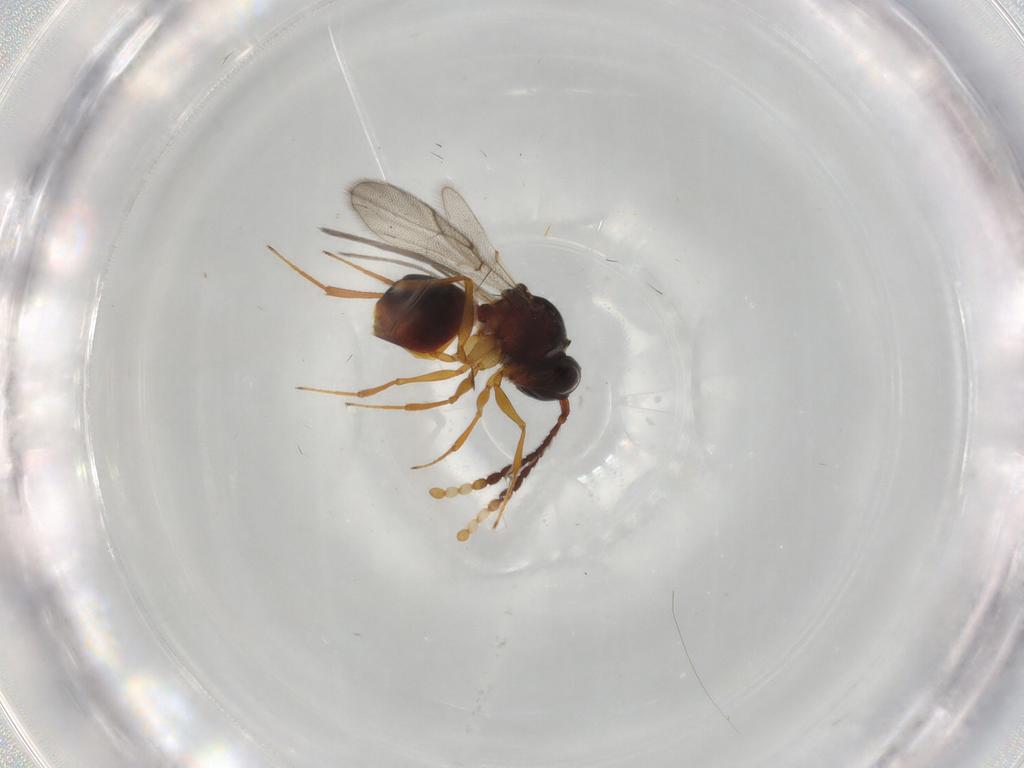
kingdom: Animalia
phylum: Arthropoda
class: Insecta
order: Hymenoptera
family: Figitidae
